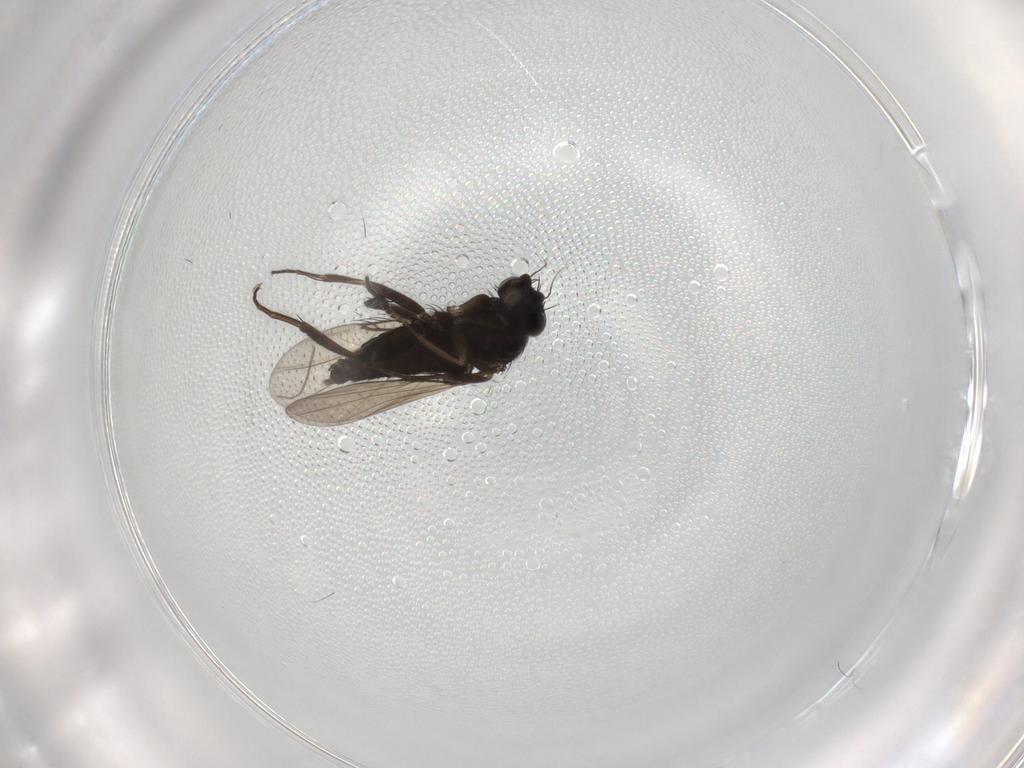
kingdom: Animalia
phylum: Arthropoda
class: Insecta
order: Diptera
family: Phoridae
